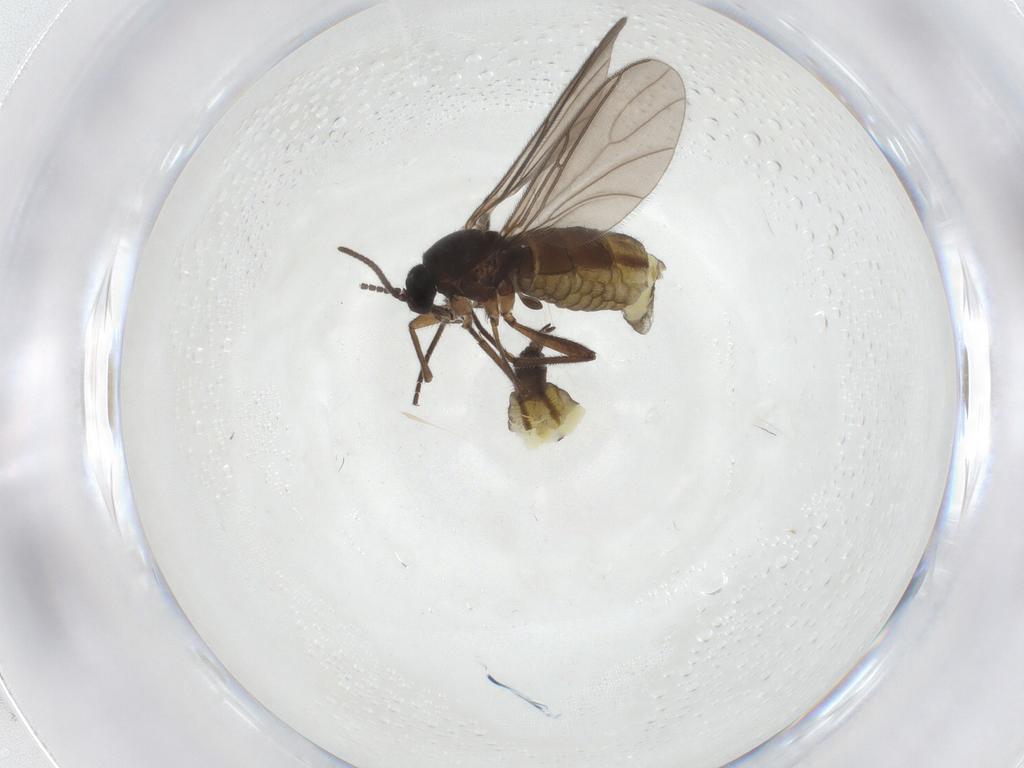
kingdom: Animalia
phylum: Arthropoda
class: Insecta
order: Diptera
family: Sciaridae
